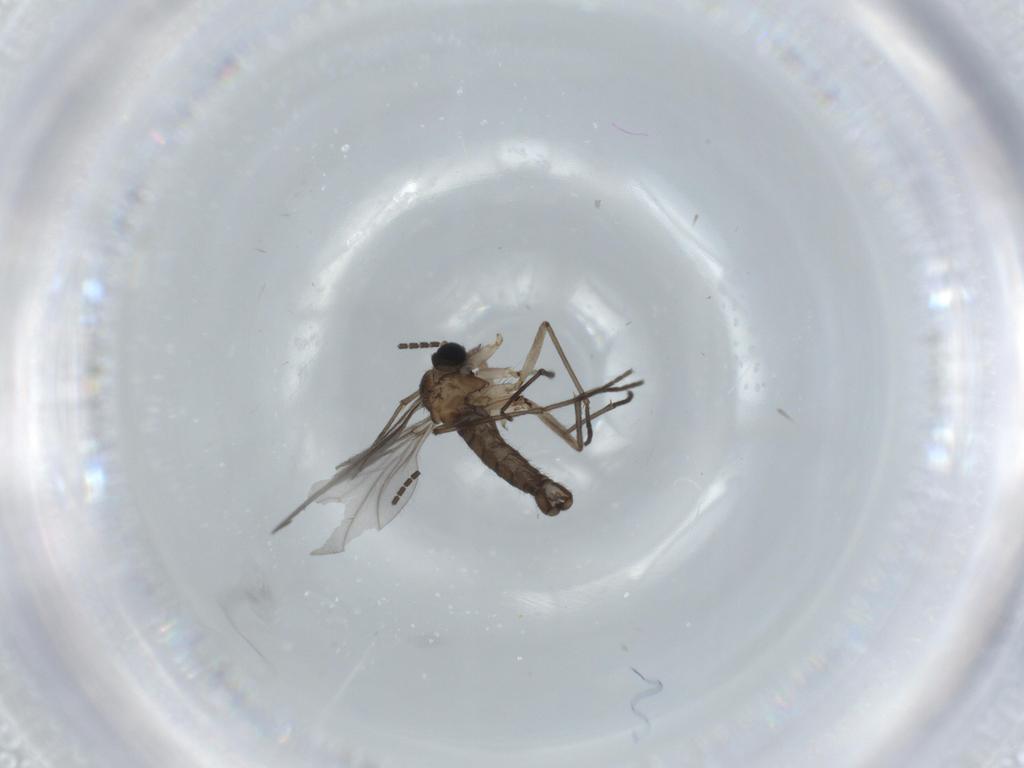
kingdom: Animalia
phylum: Arthropoda
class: Insecta
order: Diptera
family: Sciaridae
